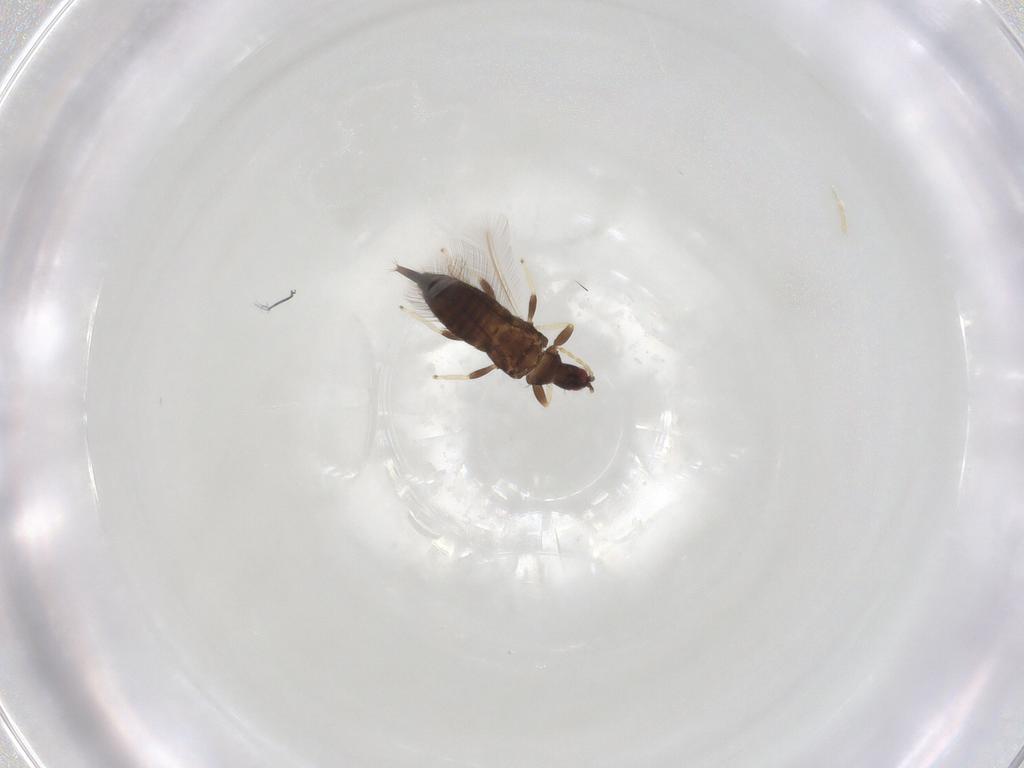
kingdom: Animalia
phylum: Arthropoda
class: Insecta
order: Thysanoptera
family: Phlaeothripidae
